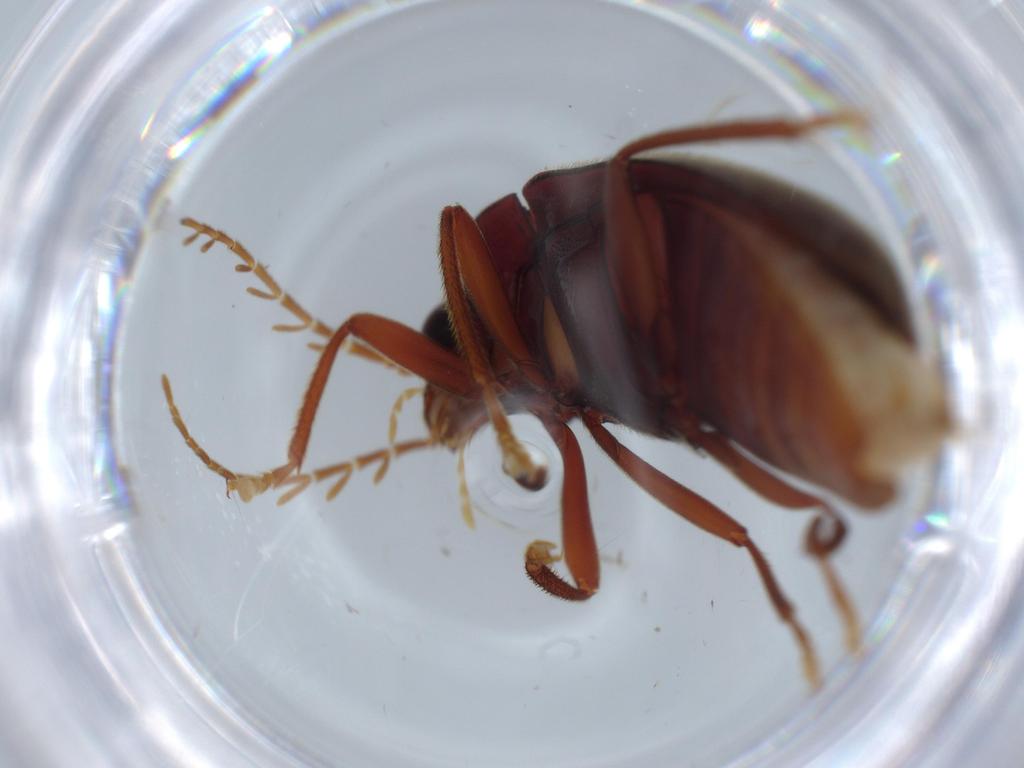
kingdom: Animalia
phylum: Arthropoda
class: Insecta
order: Coleoptera
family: Ptilodactylidae
